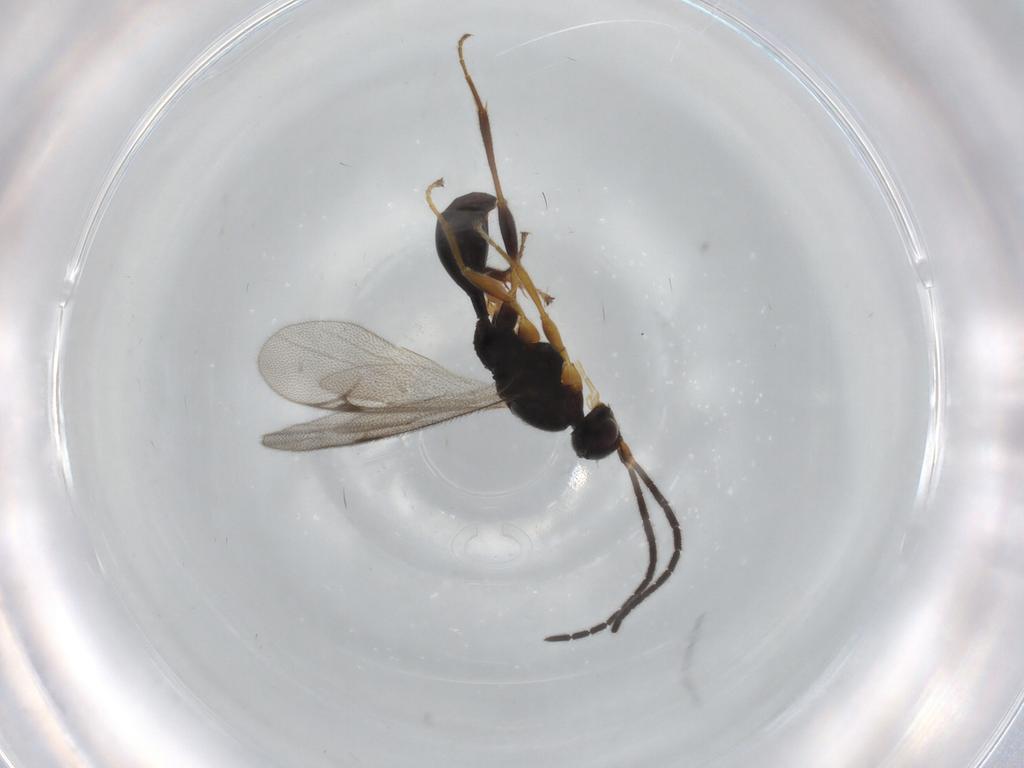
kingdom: Animalia
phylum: Arthropoda
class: Insecta
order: Hymenoptera
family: Proctotrupidae
